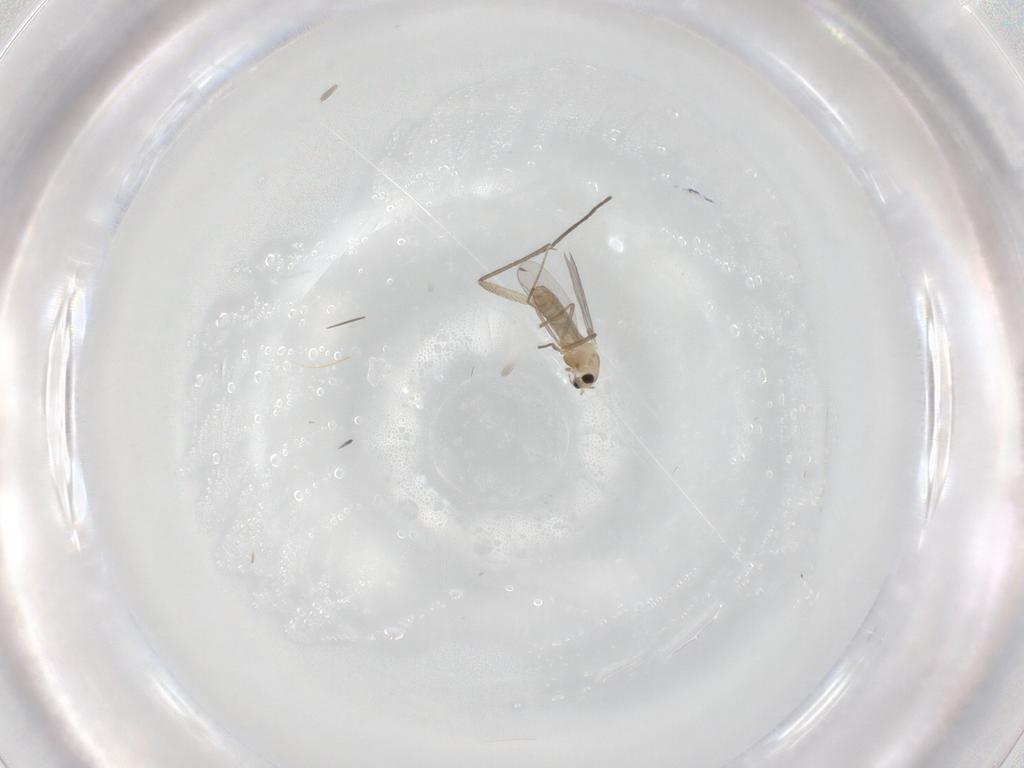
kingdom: Animalia
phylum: Arthropoda
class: Insecta
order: Diptera
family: Sciaridae
